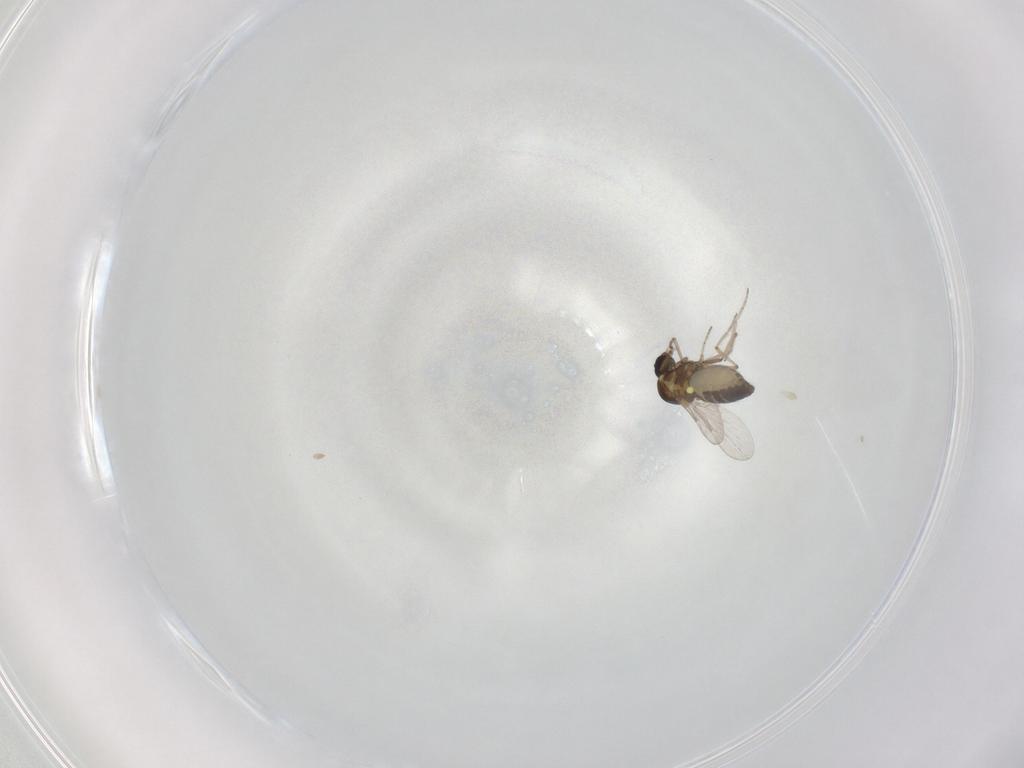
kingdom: Animalia
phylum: Arthropoda
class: Insecta
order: Diptera
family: Ceratopogonidae
